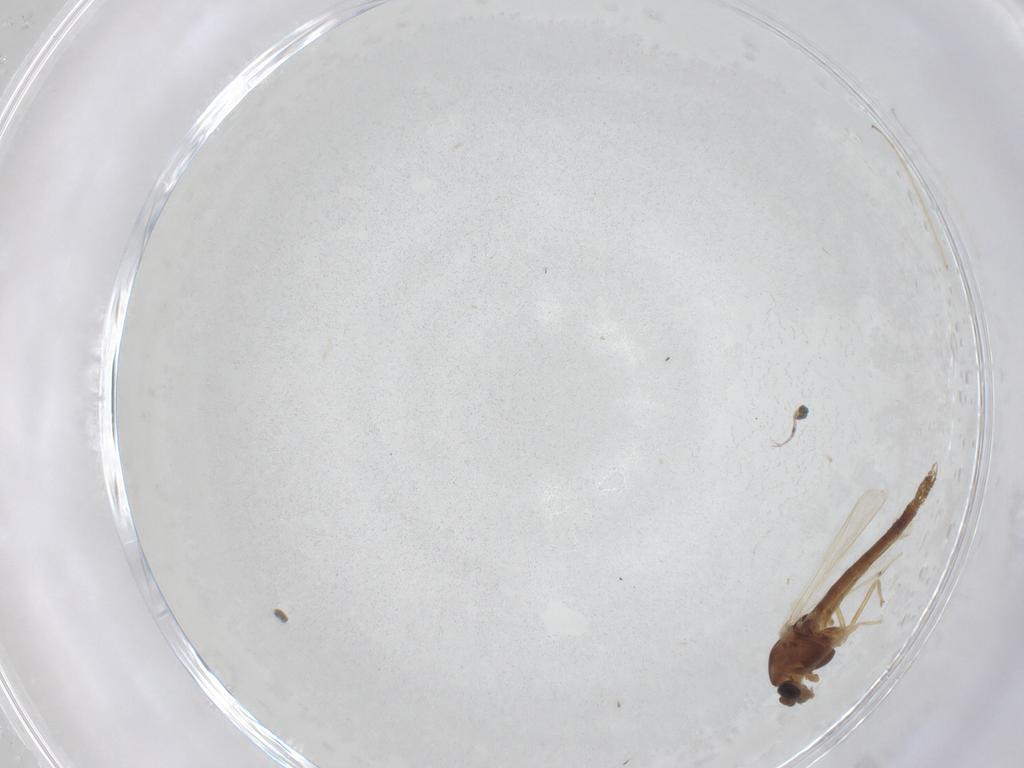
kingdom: Animalia
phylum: Arthropoda
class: Insecta
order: Diptera
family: Chironomidae
